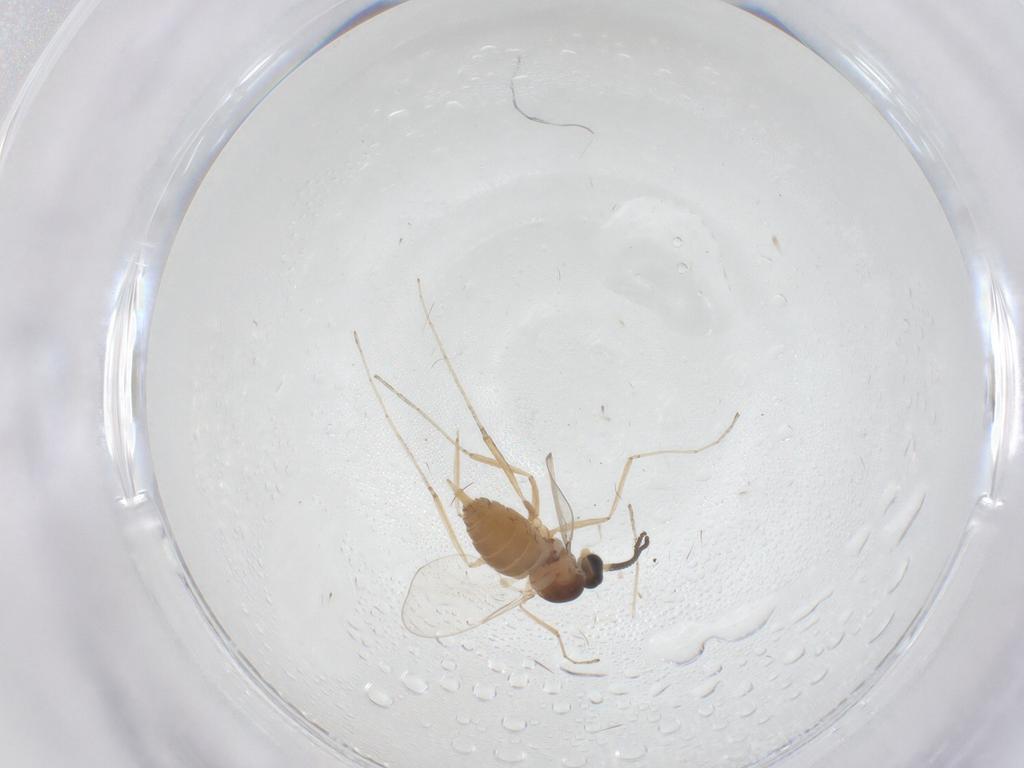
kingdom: Animalia
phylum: Arthropoda
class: Insecta
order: Diptera
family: Cecidomyiidae
